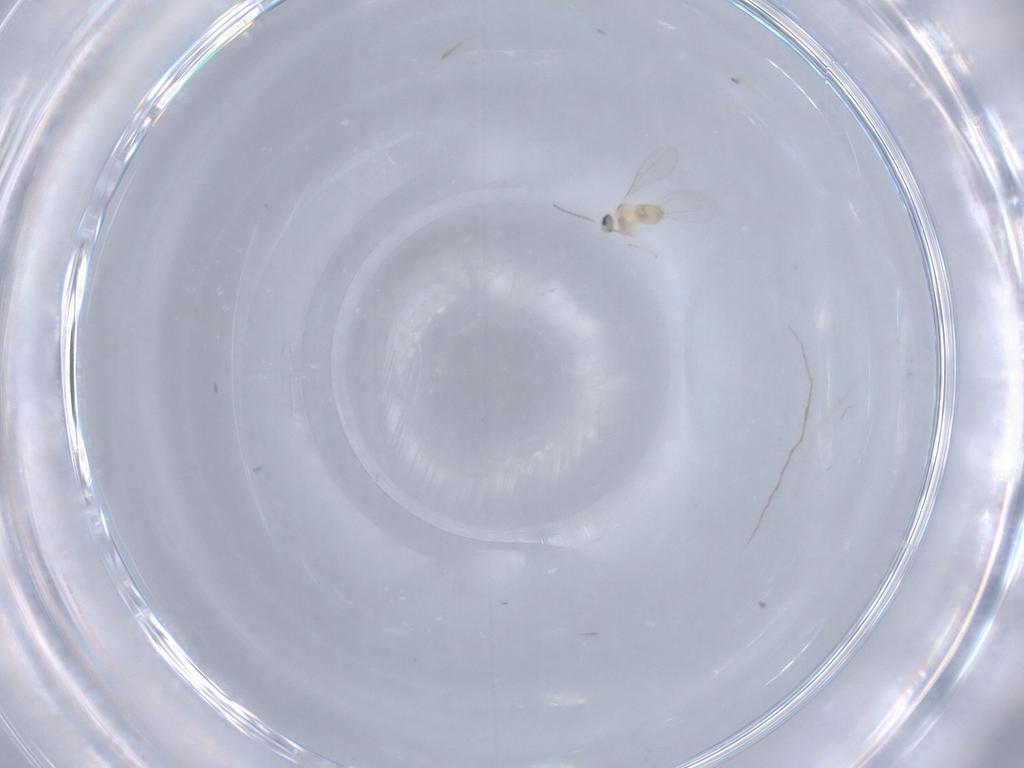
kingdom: Animalia
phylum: Arthropoda
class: Insecta
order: Diptera
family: Cecidomyiidae
